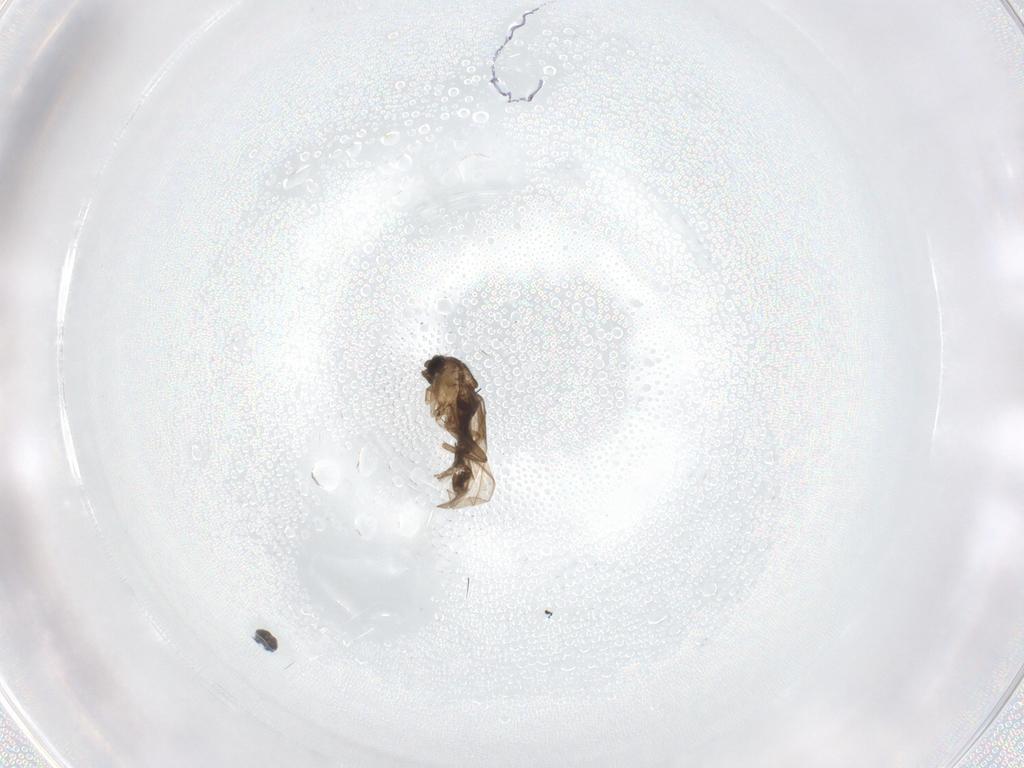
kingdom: Animalia
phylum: Arthropoda
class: Insecta
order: Diptera
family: Phoridae
